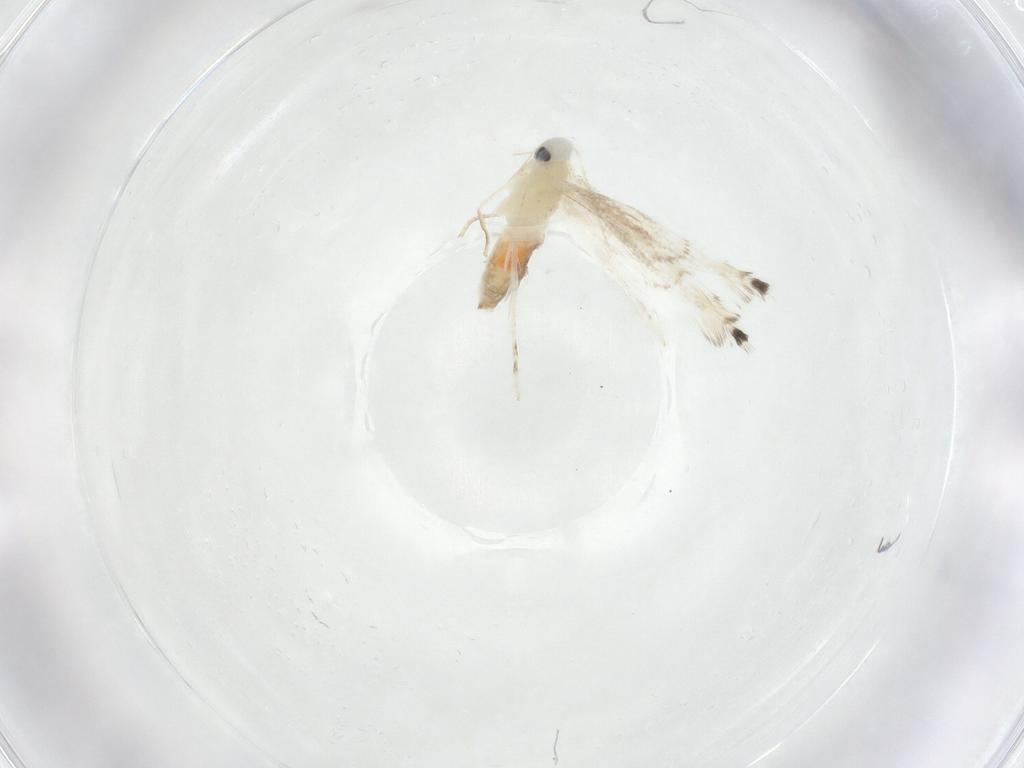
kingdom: Animalia
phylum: Arthropoda
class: Insecta
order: Lepidoptera
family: Gracillariidae
